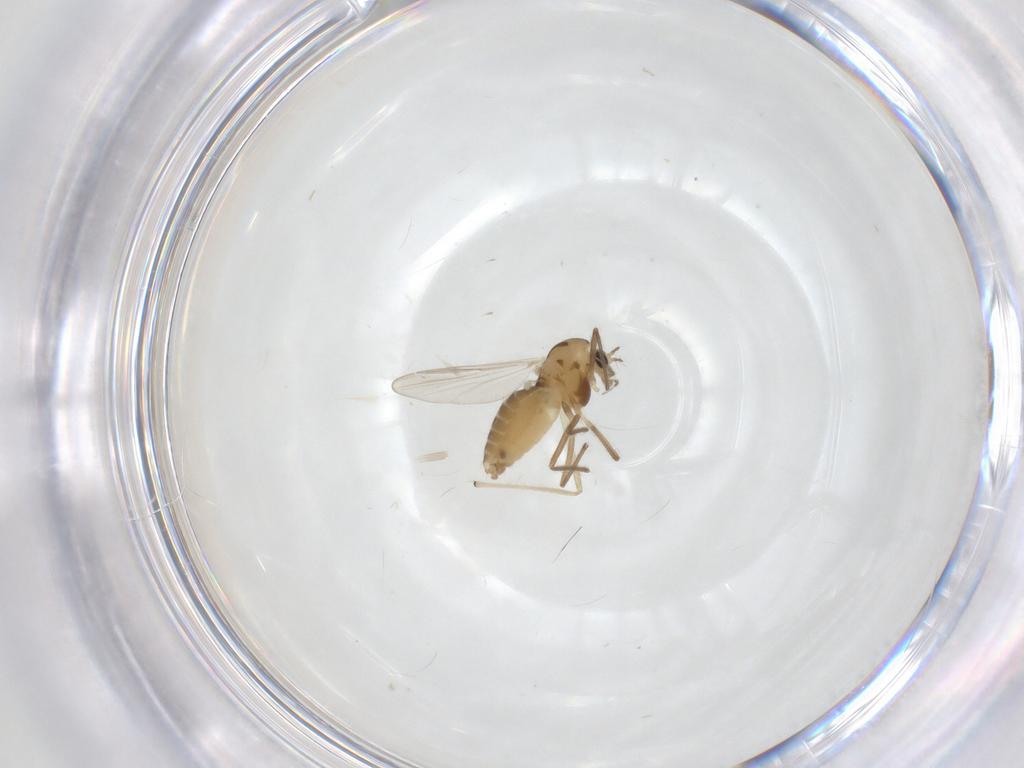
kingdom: Animalia
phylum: Arthropoda
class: Insecta
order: Diptera
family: Chironomidae
